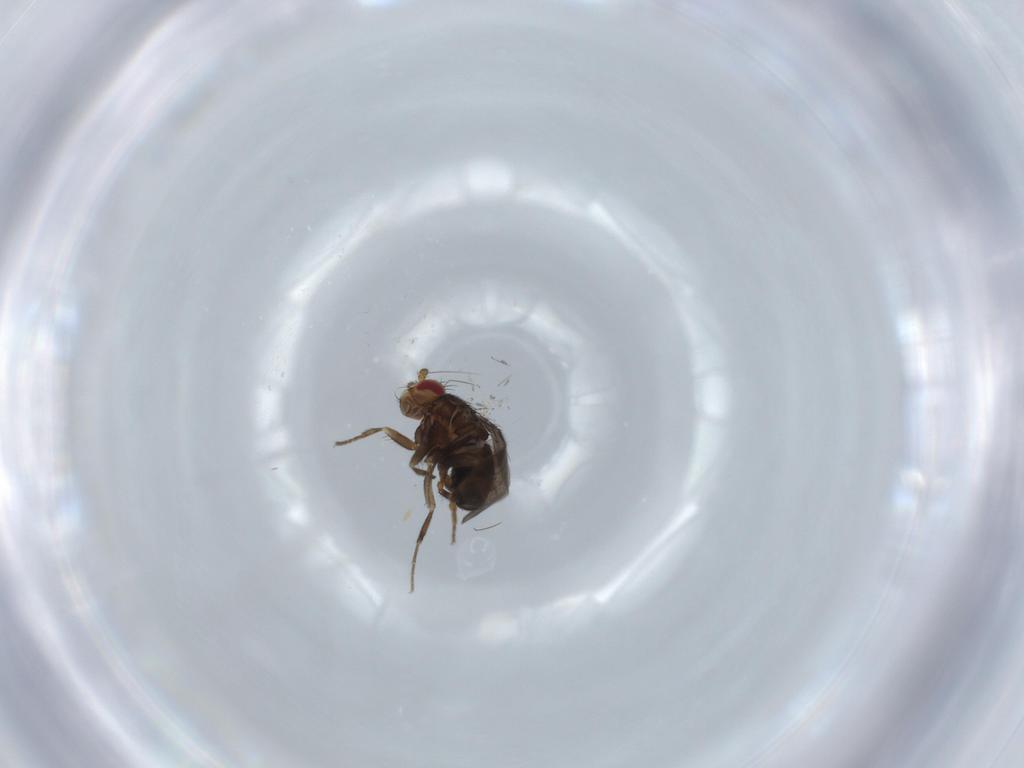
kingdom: Animalia
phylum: Arthropoda
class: Insecta
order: Diptera
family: Sphaeroceridae
